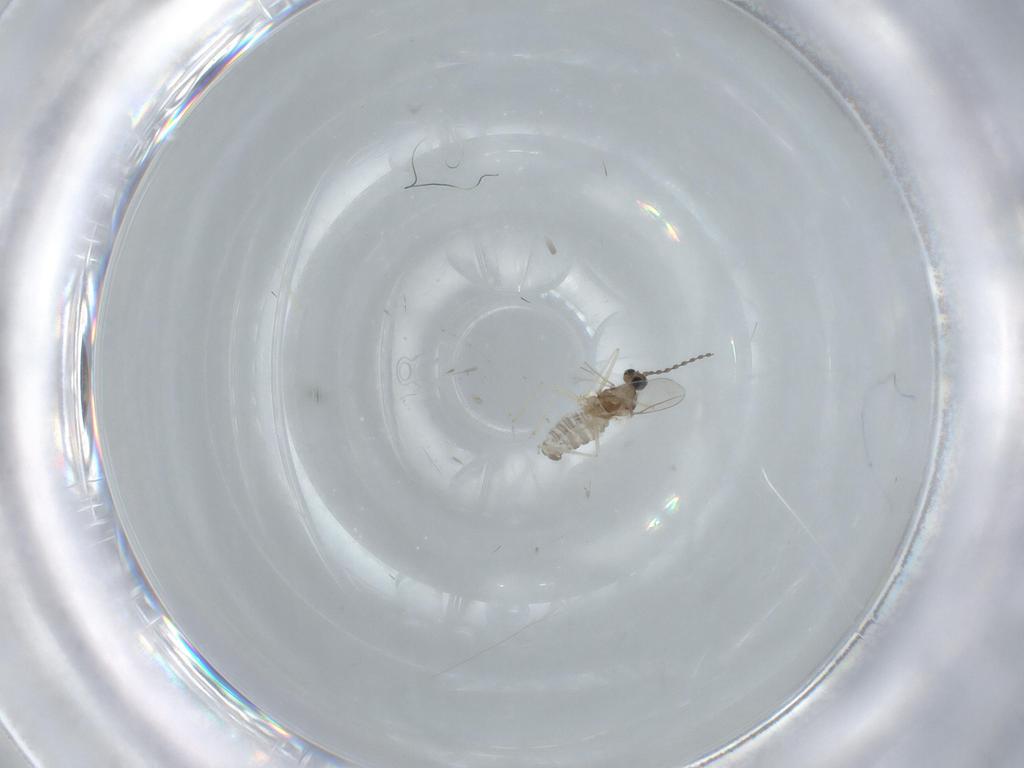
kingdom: Animalia
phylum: Arthropoda
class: Insecta
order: Diptera
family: Cecidomyiidae
